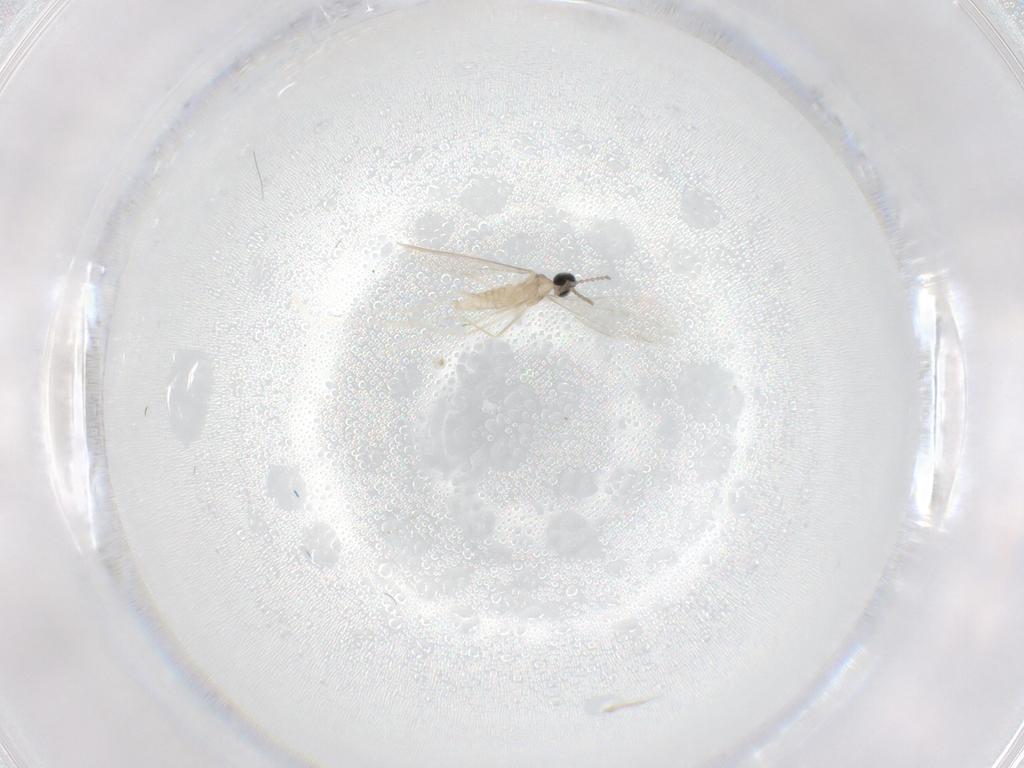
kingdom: Animalia
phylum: Arthropoda
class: Insecta
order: Diptera
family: Cecidomyiidae
